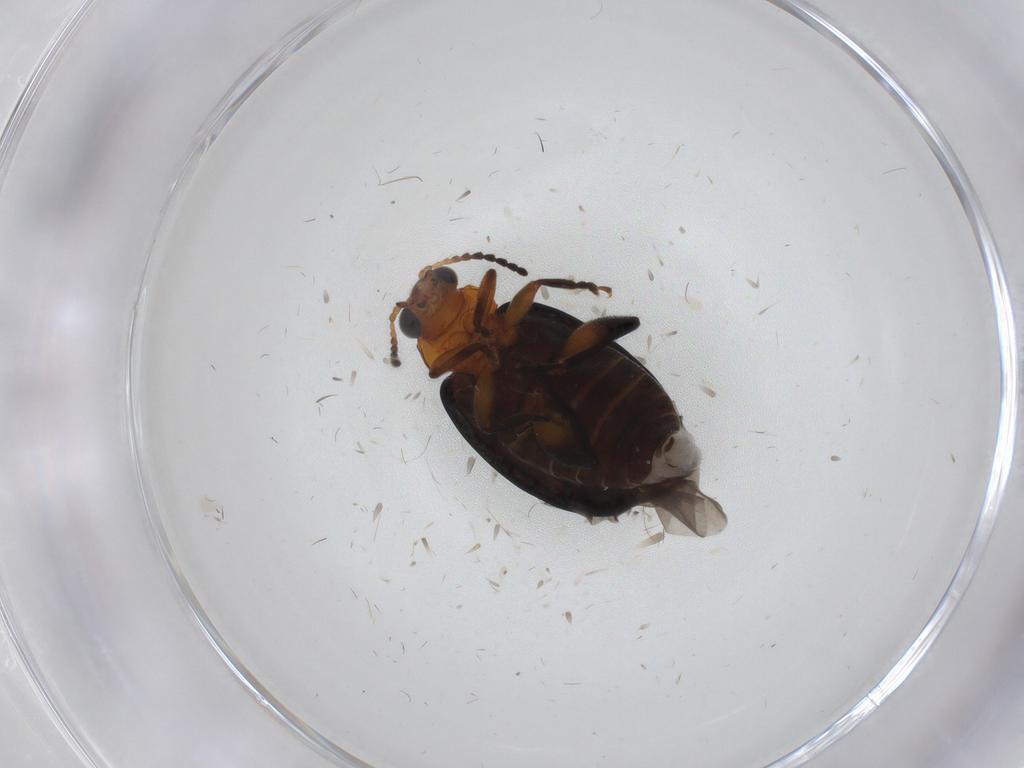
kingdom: Animalia
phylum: Arthropoda
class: Insecta
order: Coleoptera
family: Chrysomelidae
